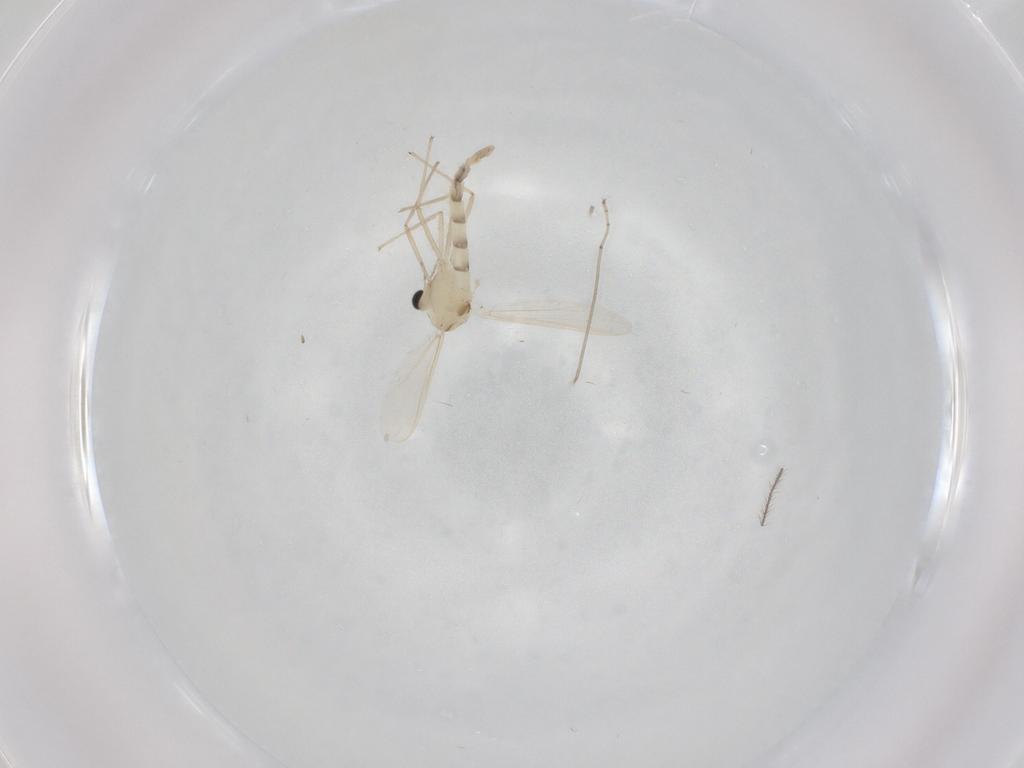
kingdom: Animalia
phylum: Arthropoda
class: Insecta
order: Diptera
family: Chironomidae
